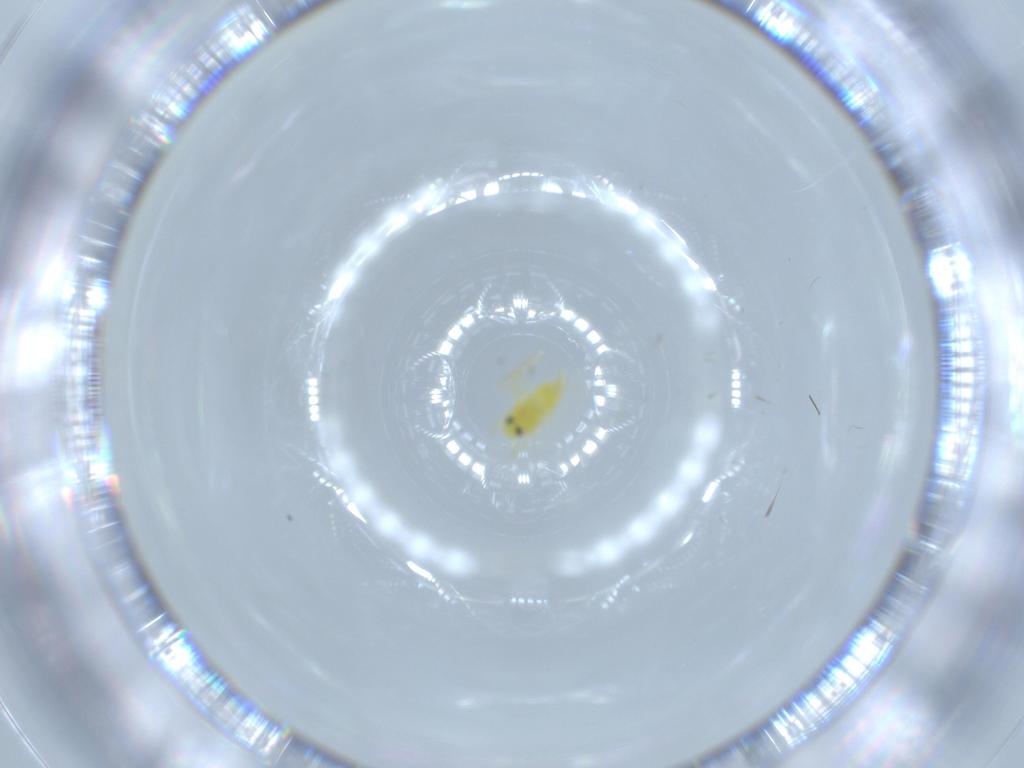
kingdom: Animalia
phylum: Arthropoda
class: Insecta
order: Hemiptera
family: Aleyrodidae
